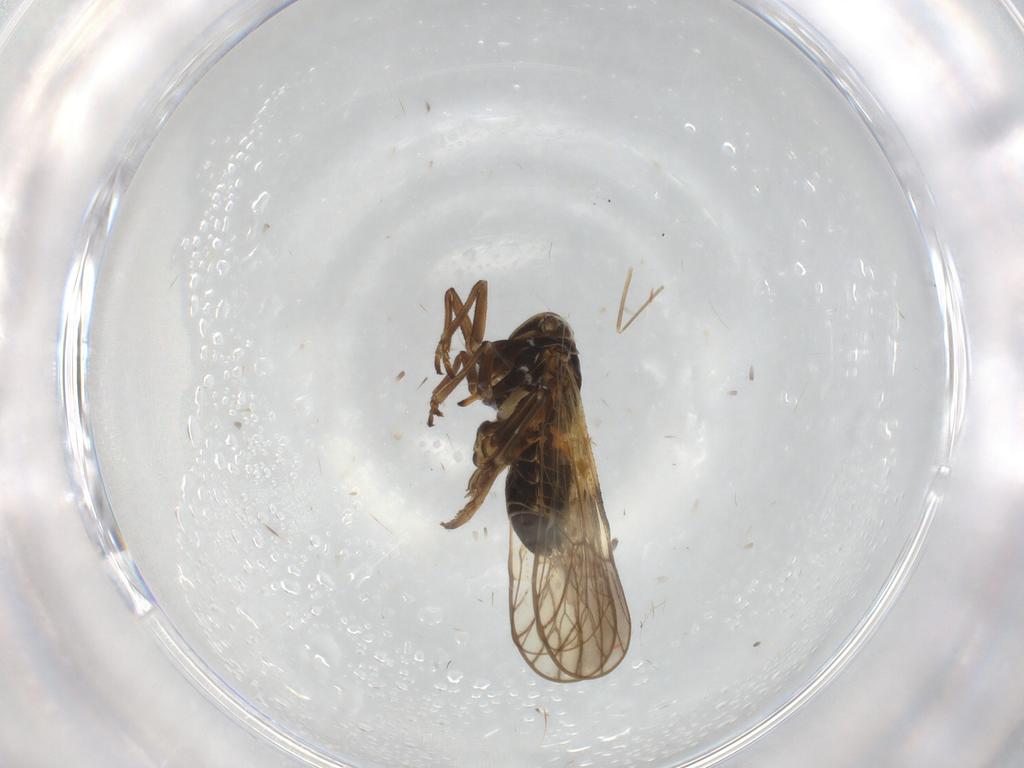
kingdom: Animalia
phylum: Arthropoda
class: Insecta
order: Hemiptera
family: Delphacidae
